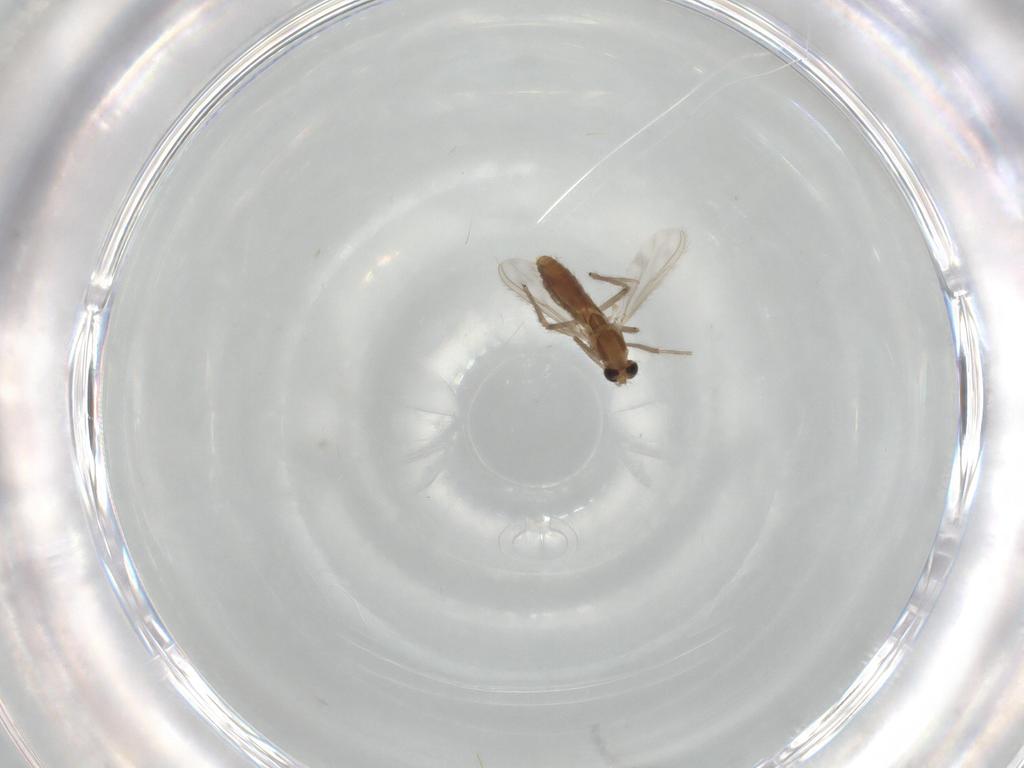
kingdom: Animalia
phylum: Arthropoda
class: Insecta
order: Diptera
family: Chironomidae
